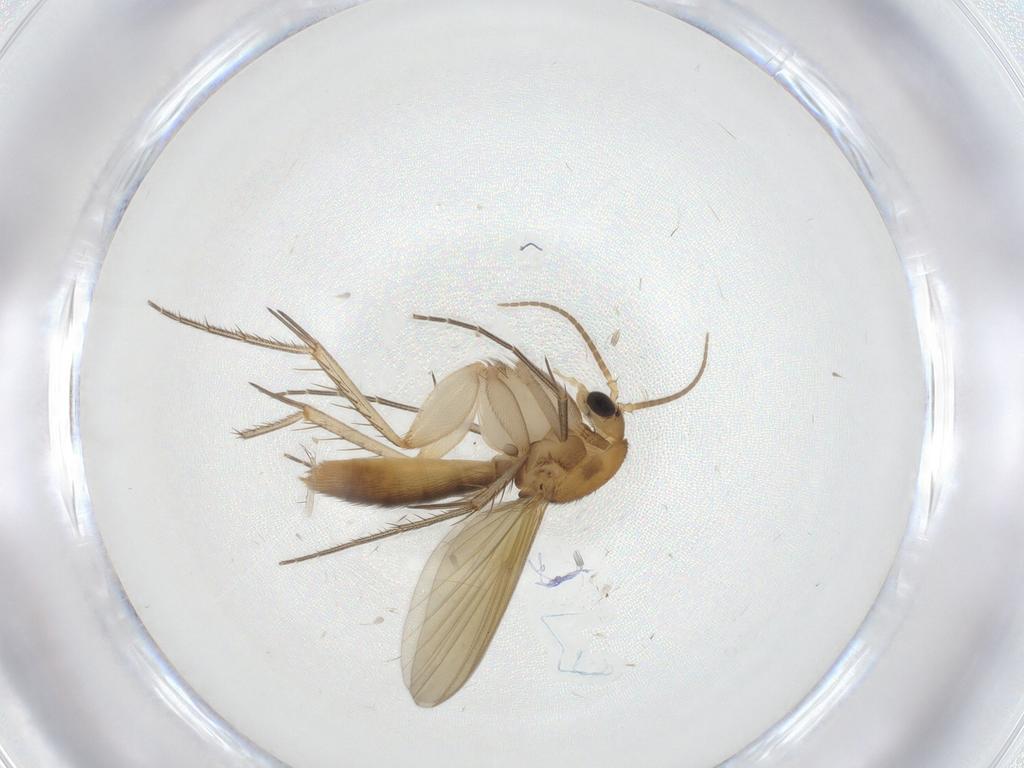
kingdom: Animalia
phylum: Arthropoda
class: Insecta
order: Diptera
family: Mycetophilidae
